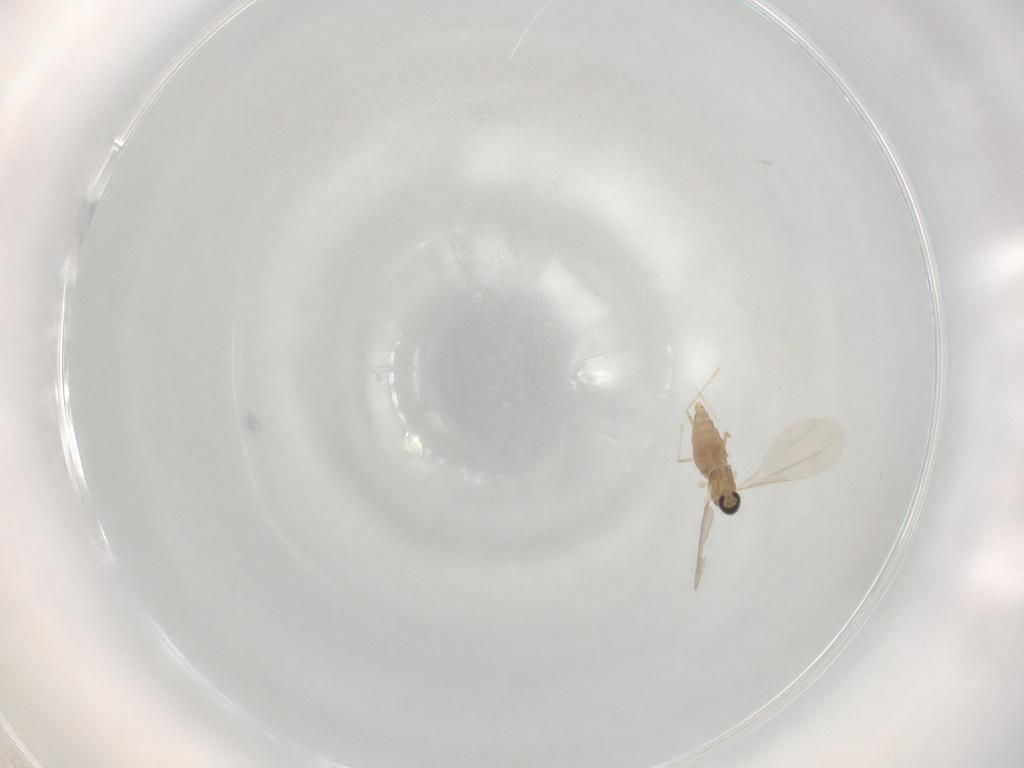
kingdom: Animalia
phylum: Arthropoda
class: Insecta
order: Diptera
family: Cecidomyiidae
